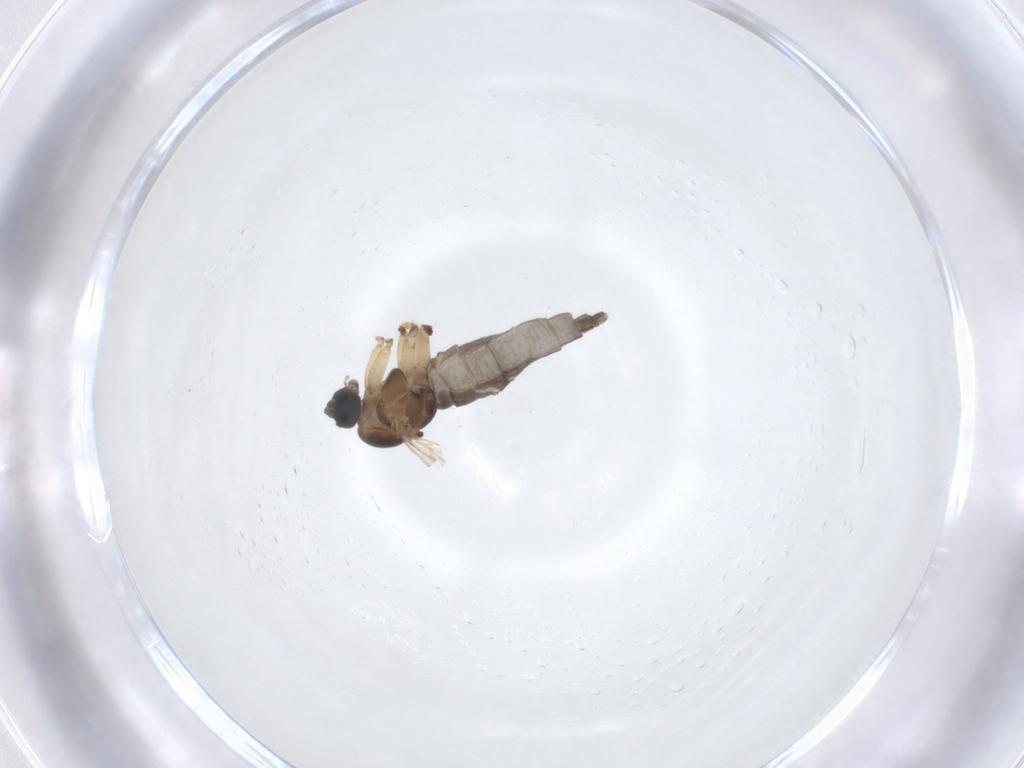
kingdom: Animalia
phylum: Arthropoda
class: Insecta
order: Diptera
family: Sciaridae
